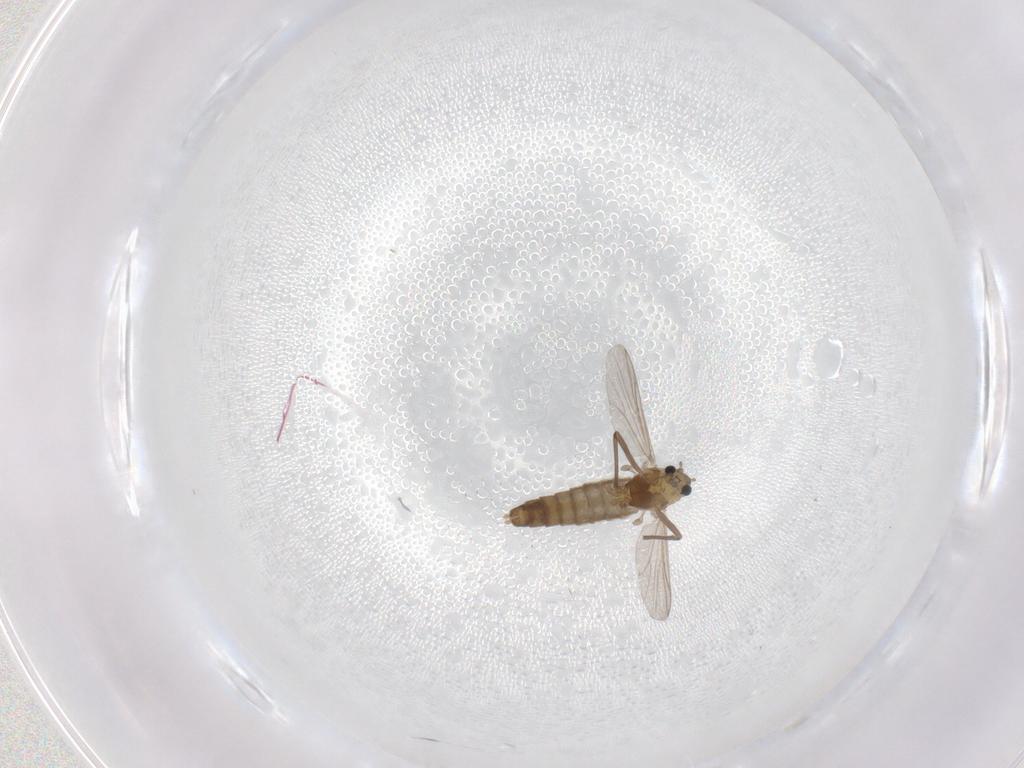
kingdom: Animalia
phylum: Arthropoda
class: Insecta
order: Diptera
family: Chironomidae
